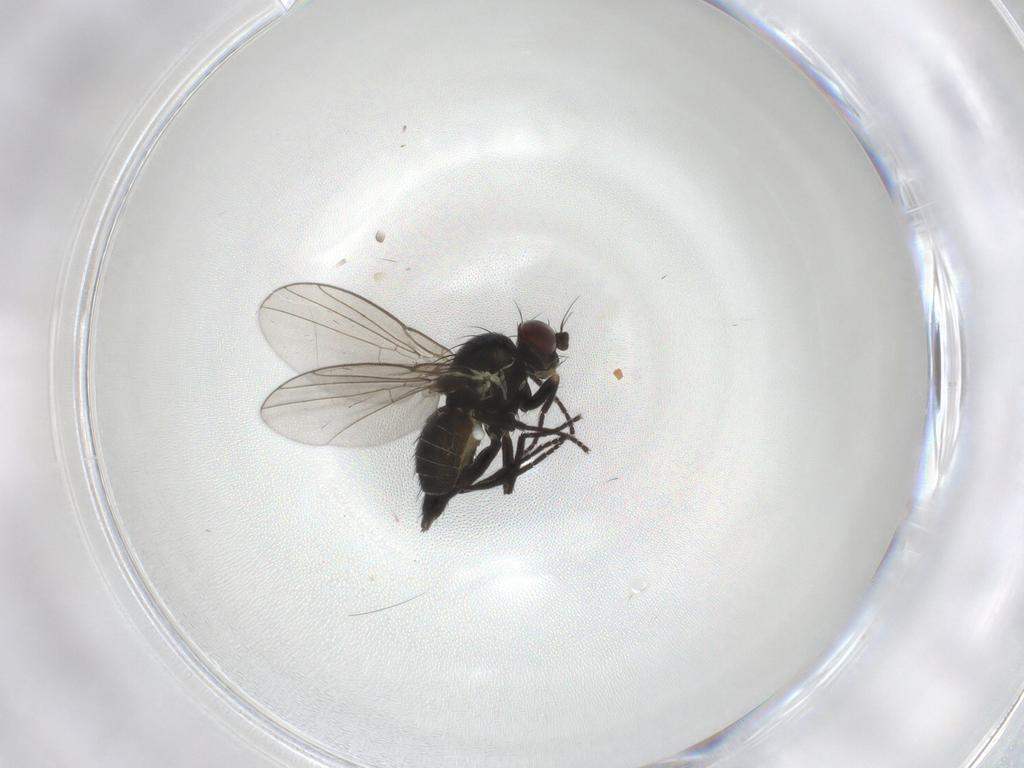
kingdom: Animalia
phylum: Arthropoda
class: Insecta
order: Diptera
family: Agromyzidae
